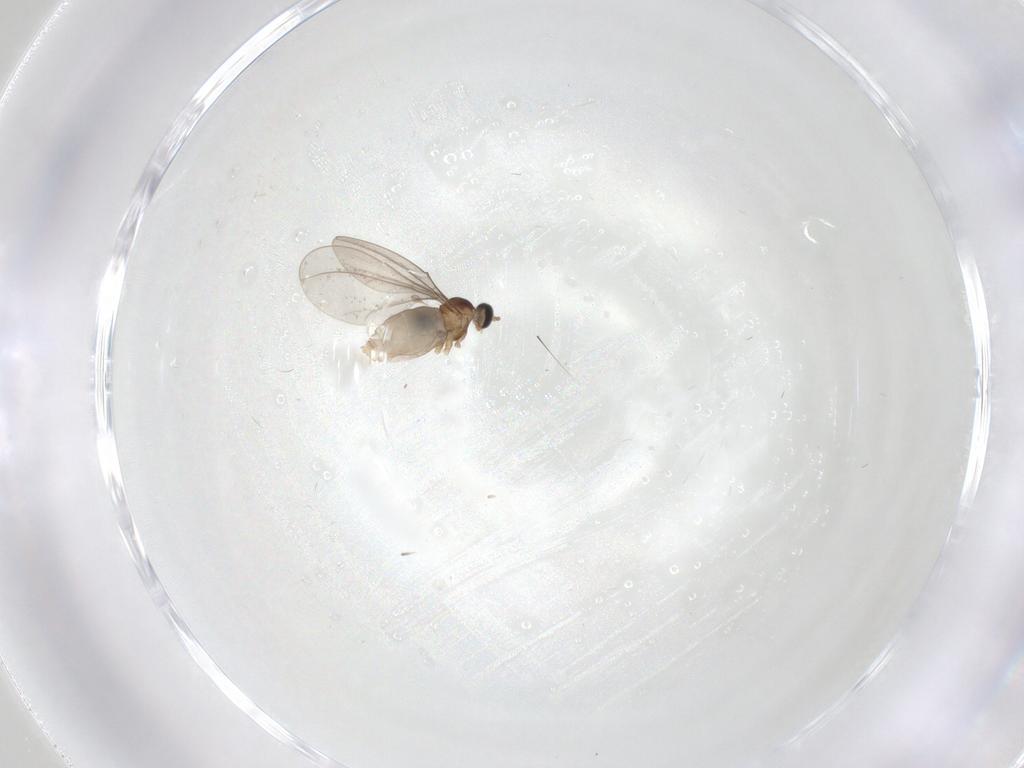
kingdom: Animalia
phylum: Arthropoda
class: Insecta
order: Diptera
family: Cecidomyiidae
